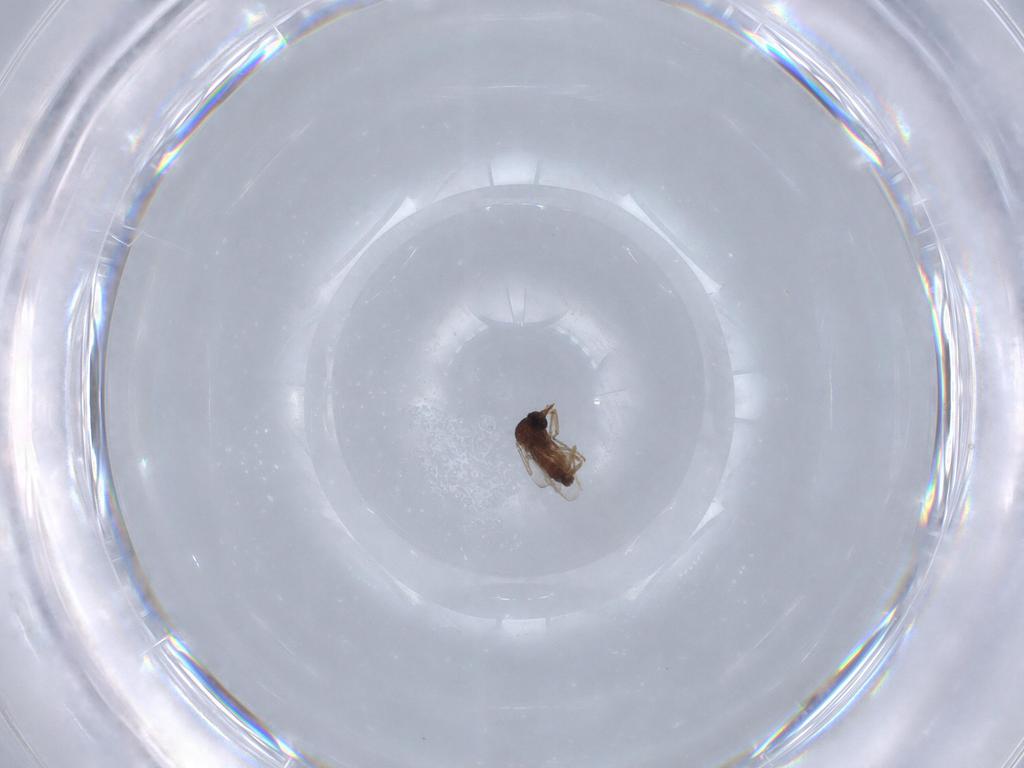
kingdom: Animalia
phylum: Arthropoda
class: Insecta
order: Diptera
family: Ceratopogonidae
